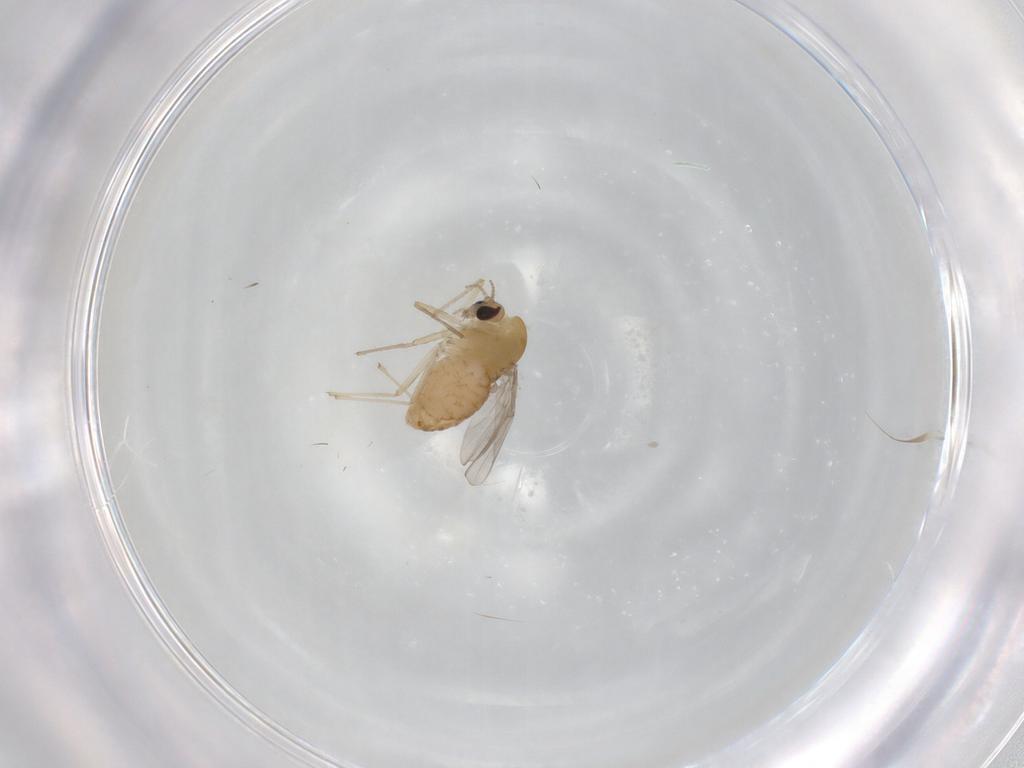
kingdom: Animalia
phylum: Arthropoda
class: Insecta
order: Diptera
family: Chironomidae
